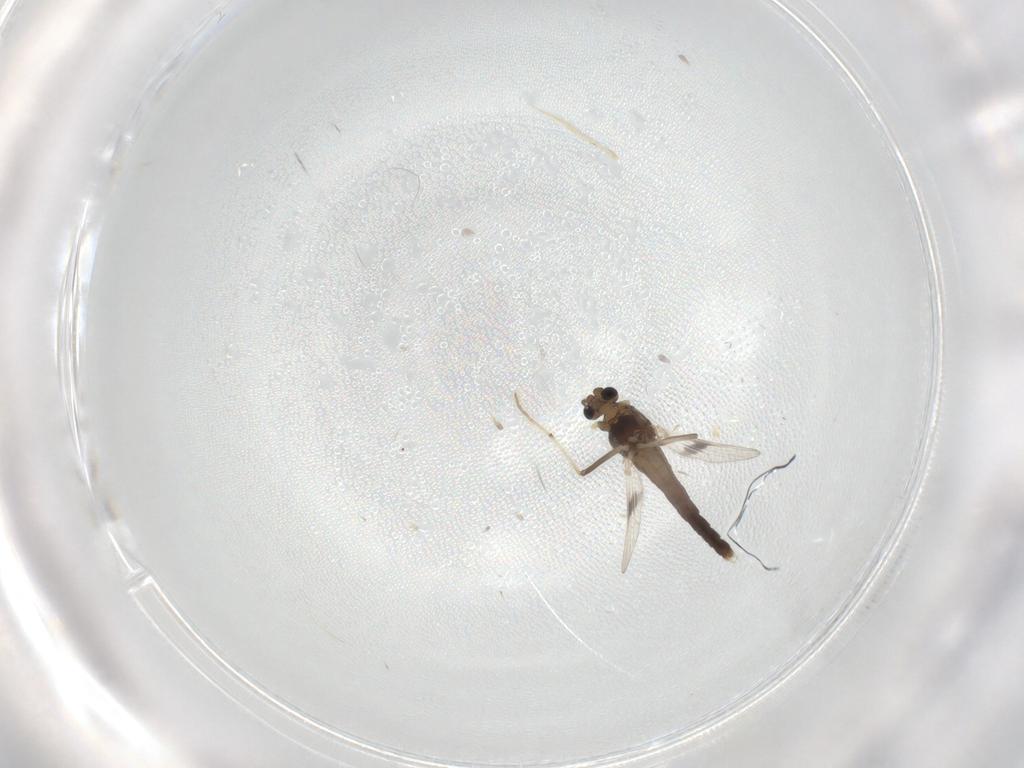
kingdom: Animalia
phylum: Arthropoda
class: Insecta
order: Diptera
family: Chironomidae
